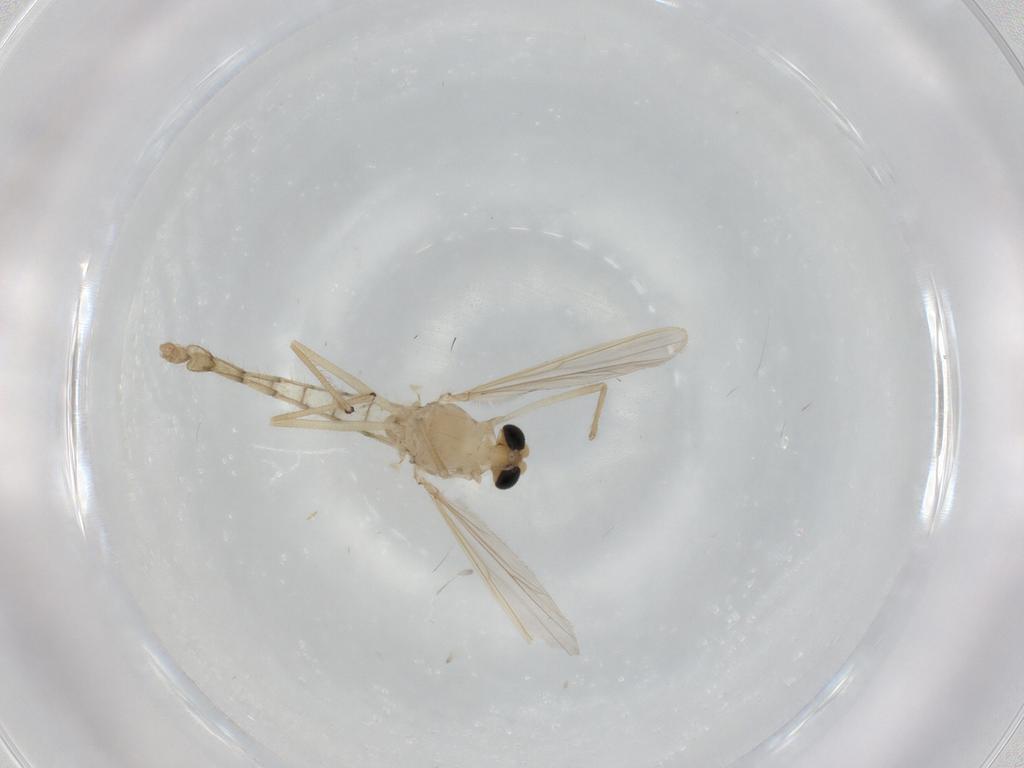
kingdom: Animalia
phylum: Arthropoda
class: Insecta
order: Diptera
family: Chironomidae
